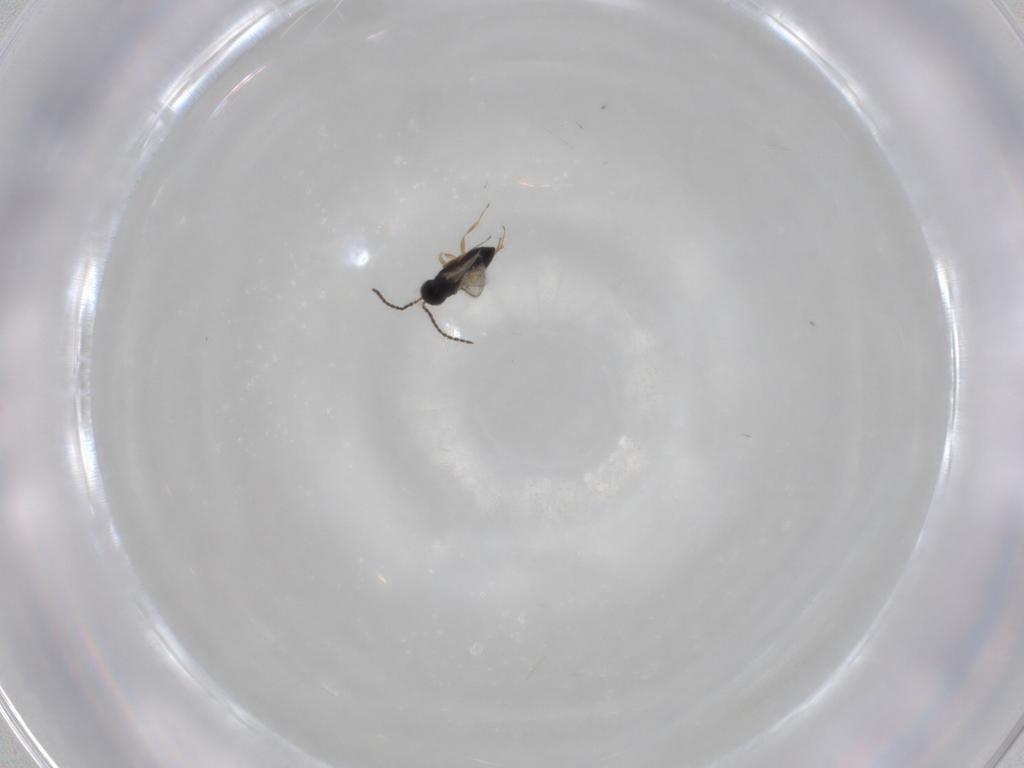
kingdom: Animalia
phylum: Arthropoda
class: Insecta
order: Hymenoptera
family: Scelionidae
